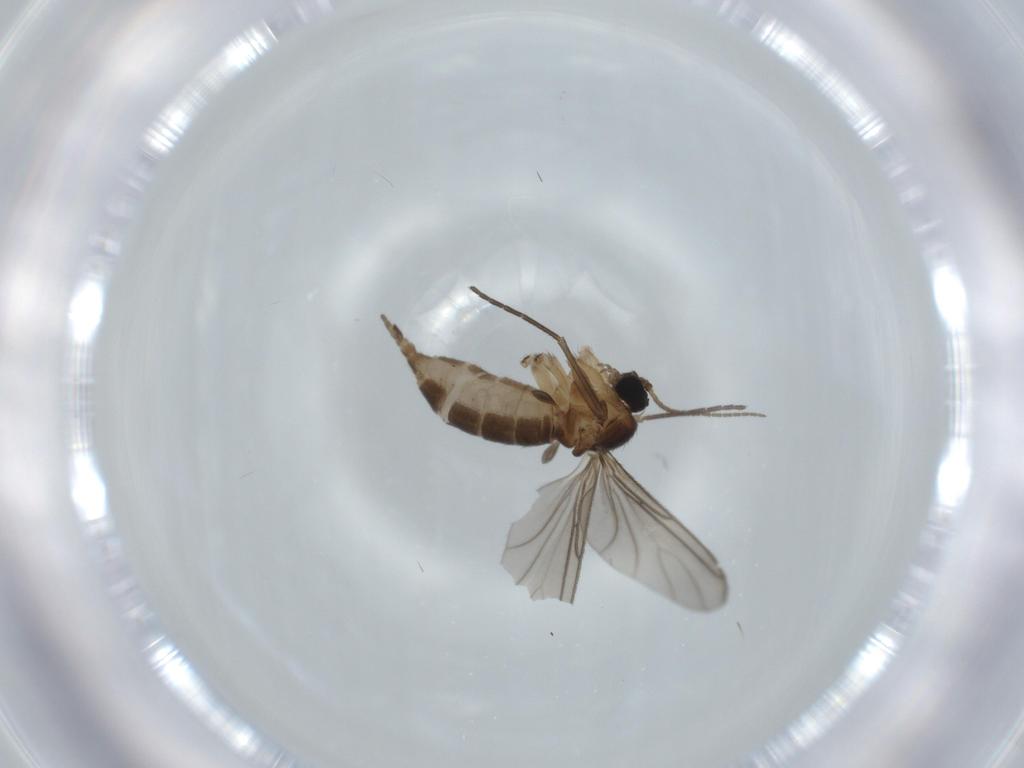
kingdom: Animalia
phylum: Arthropoda
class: Insecta
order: Diptera
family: Sciaridae
